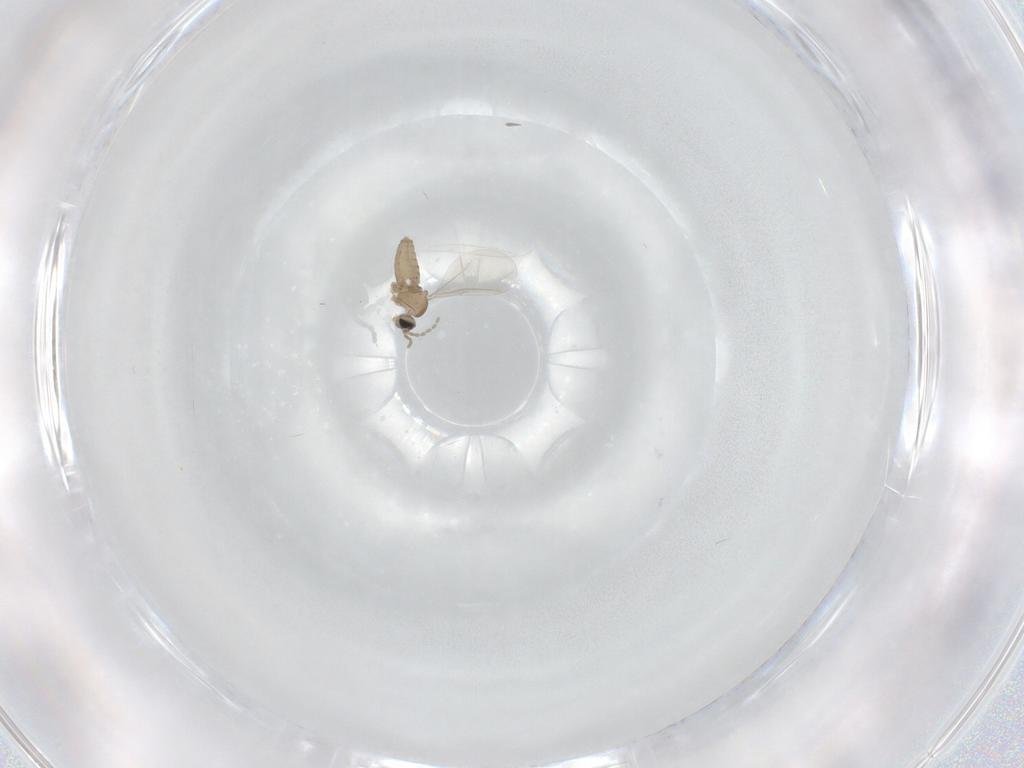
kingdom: Animalia
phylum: Arthropoda
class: Insecta
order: Diptera
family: Cecidomyiidae
